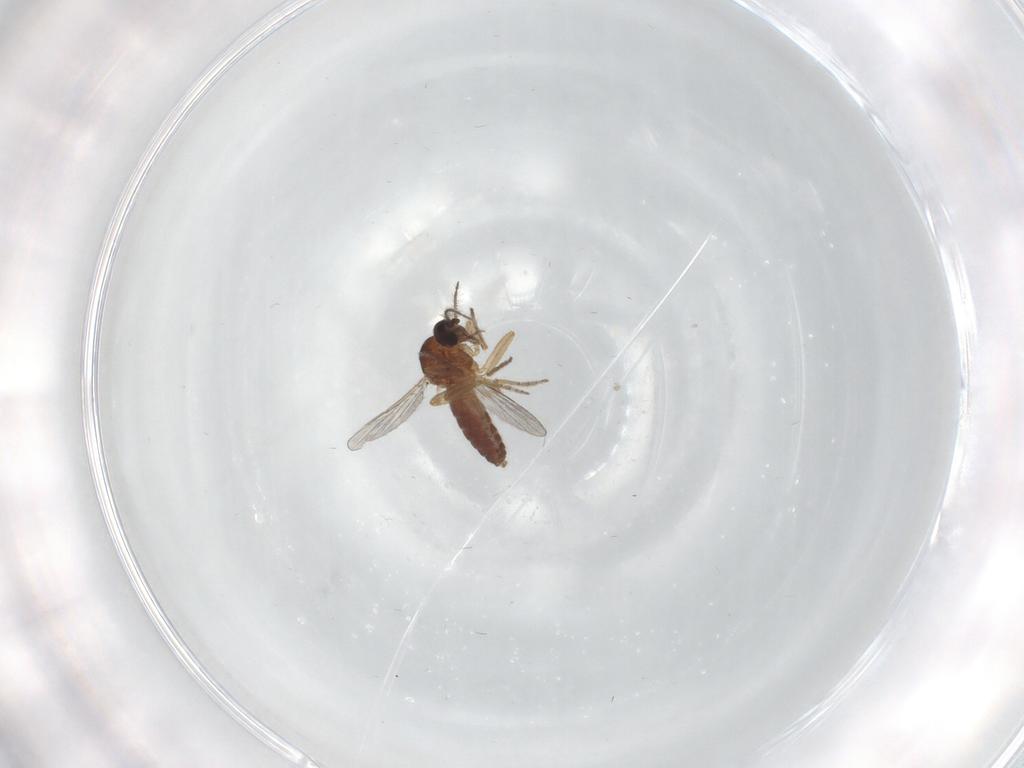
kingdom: Animalia
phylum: Arthropoda
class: Insecta
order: Diptera
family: Ceratopogonidae
